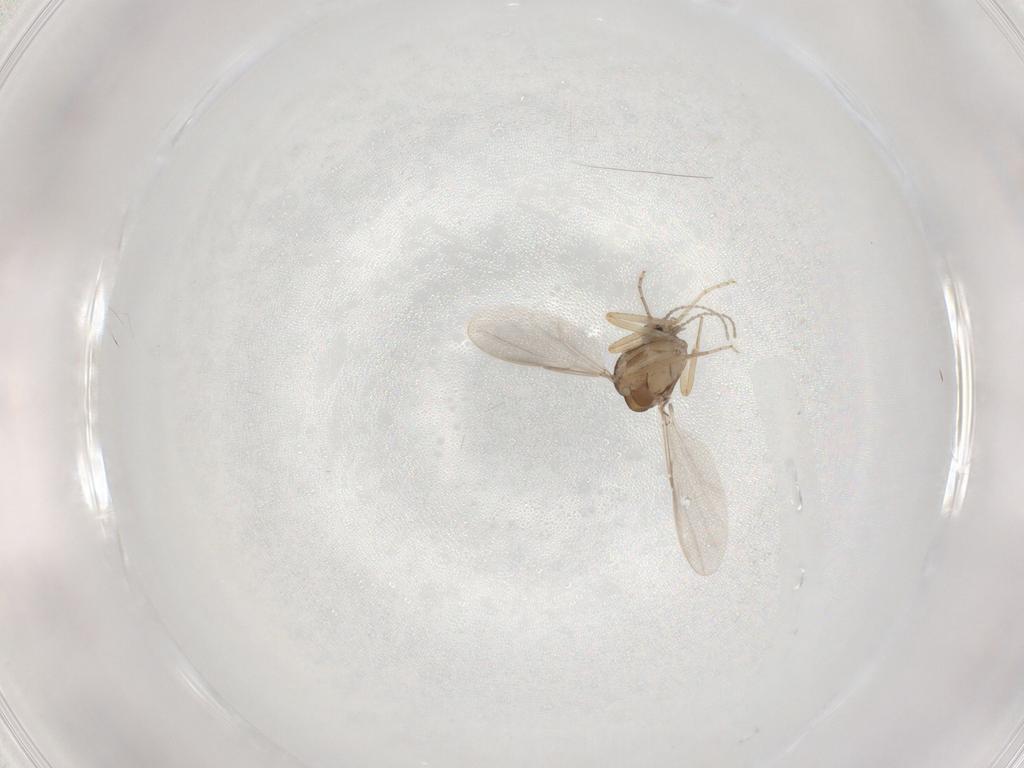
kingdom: Animalia
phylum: Arthropoda
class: Insecta
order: Diptera
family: Ceratopogonidae
